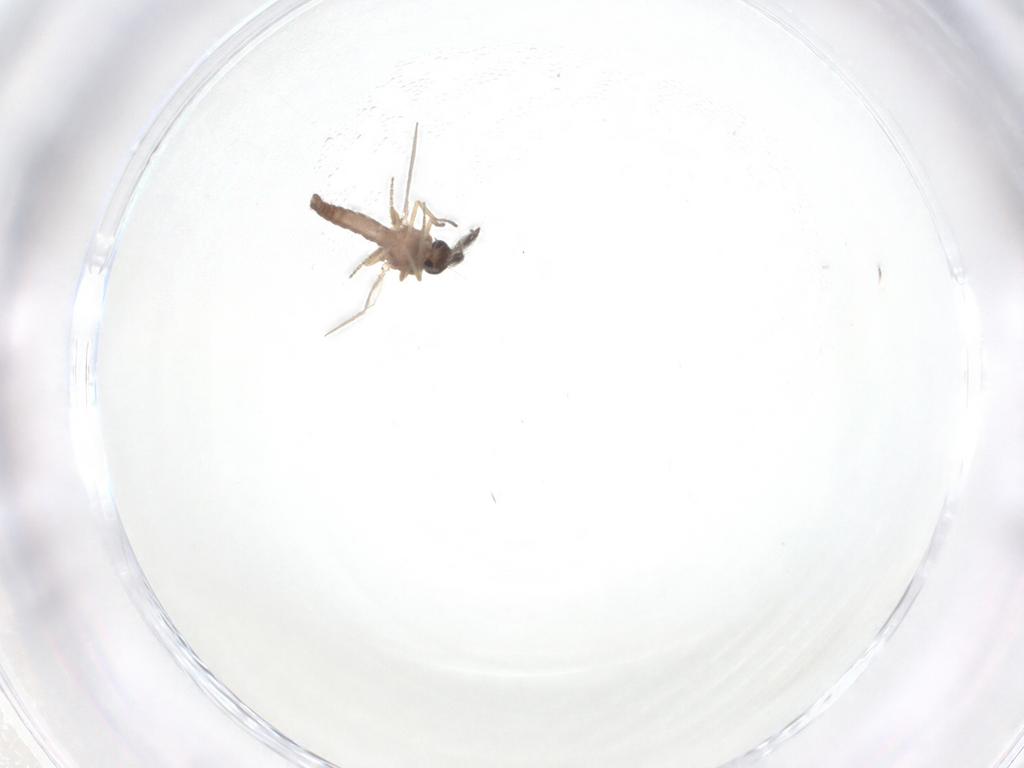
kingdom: Animalia
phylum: Arthropoda
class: Insecta
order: Diptera
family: Ceratopogonidae
